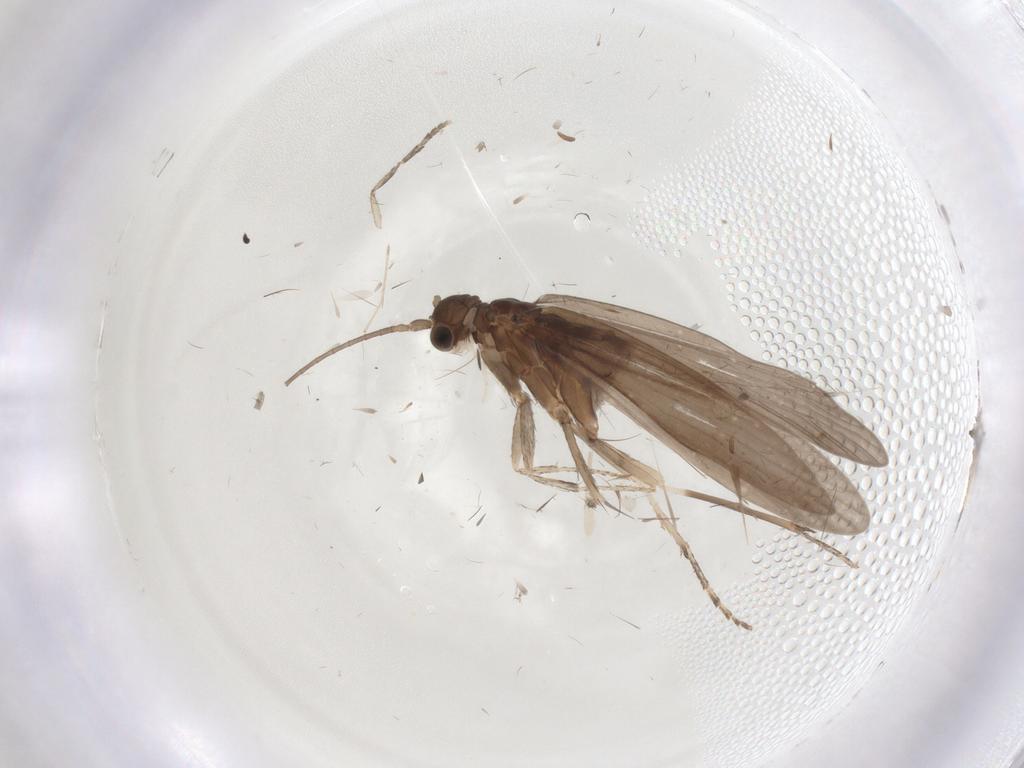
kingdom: Animalia
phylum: Arthropoda
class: Insecta
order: Trichoptera
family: Xiphocentronidae
